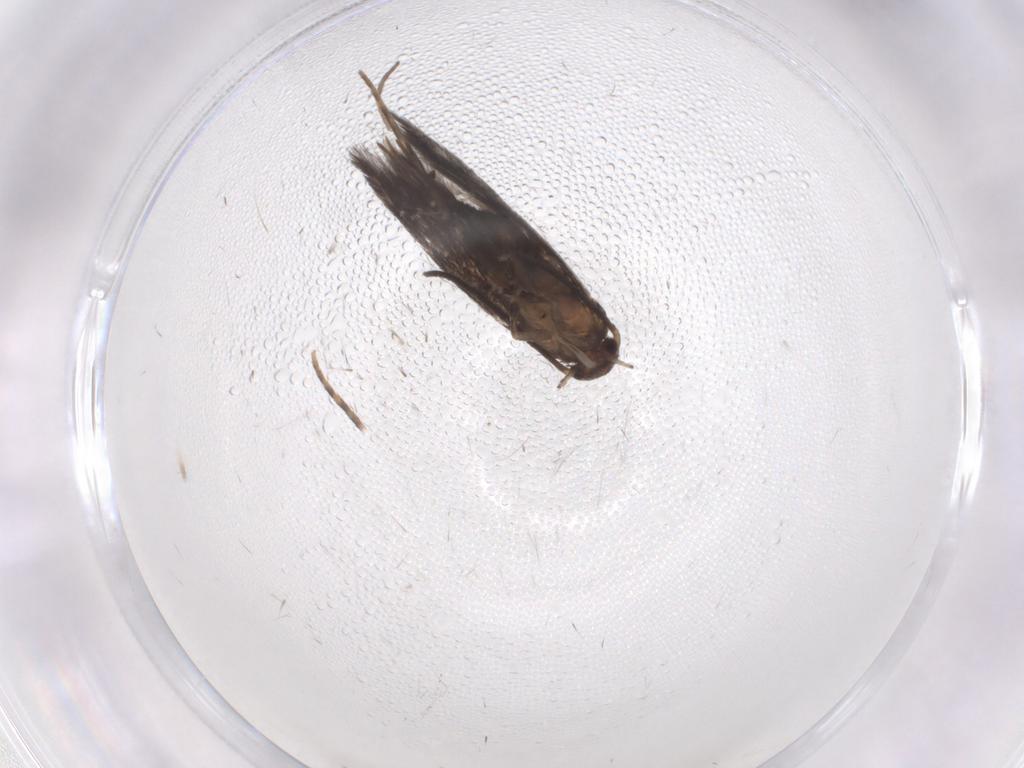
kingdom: Animalia
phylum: Arthropoda
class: Insecta
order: Lepidoptera
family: Elachistidae
